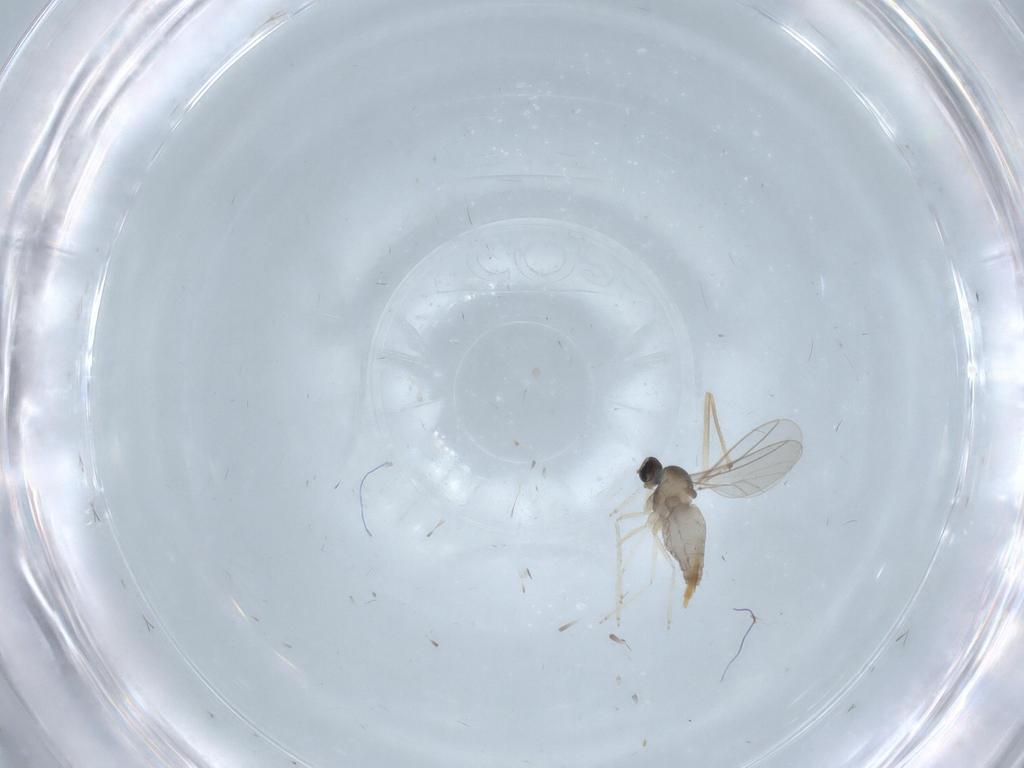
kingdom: Animalia
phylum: Arthropoda
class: Insecta
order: Diptera
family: Cecidomyiidae
